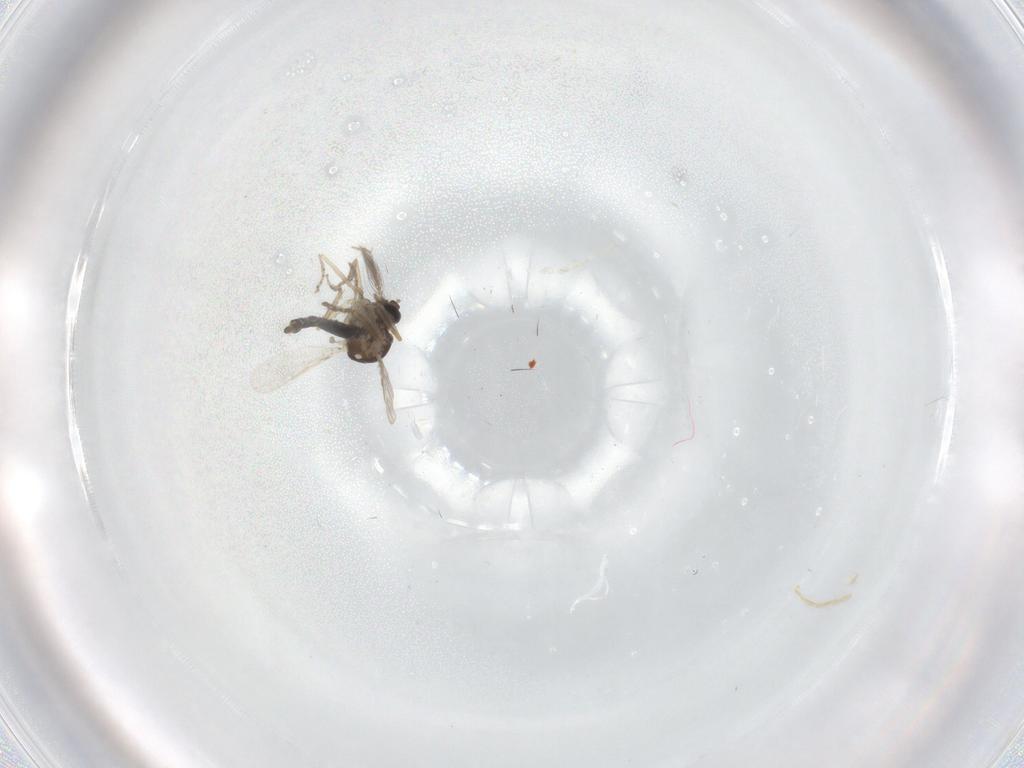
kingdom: Animalia
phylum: Arthropoda
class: Insecta
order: Diptera
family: Ceratopogonidae
